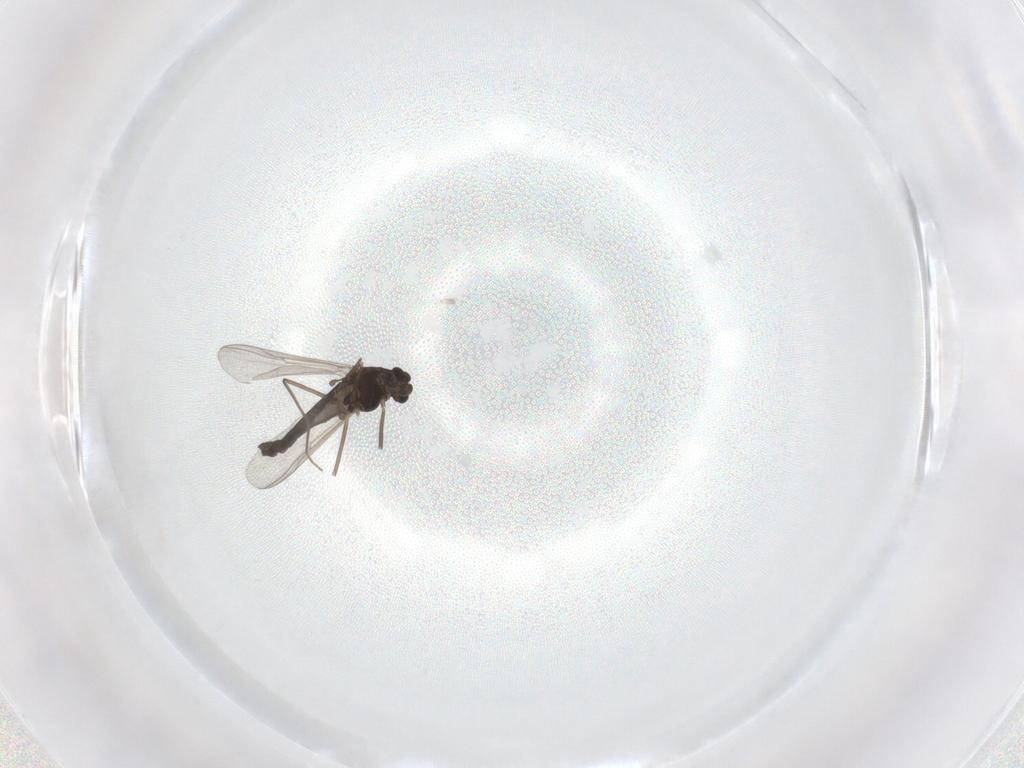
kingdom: Animalia
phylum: Arthropoda
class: Insecta
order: Diptera
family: Chironomidae
